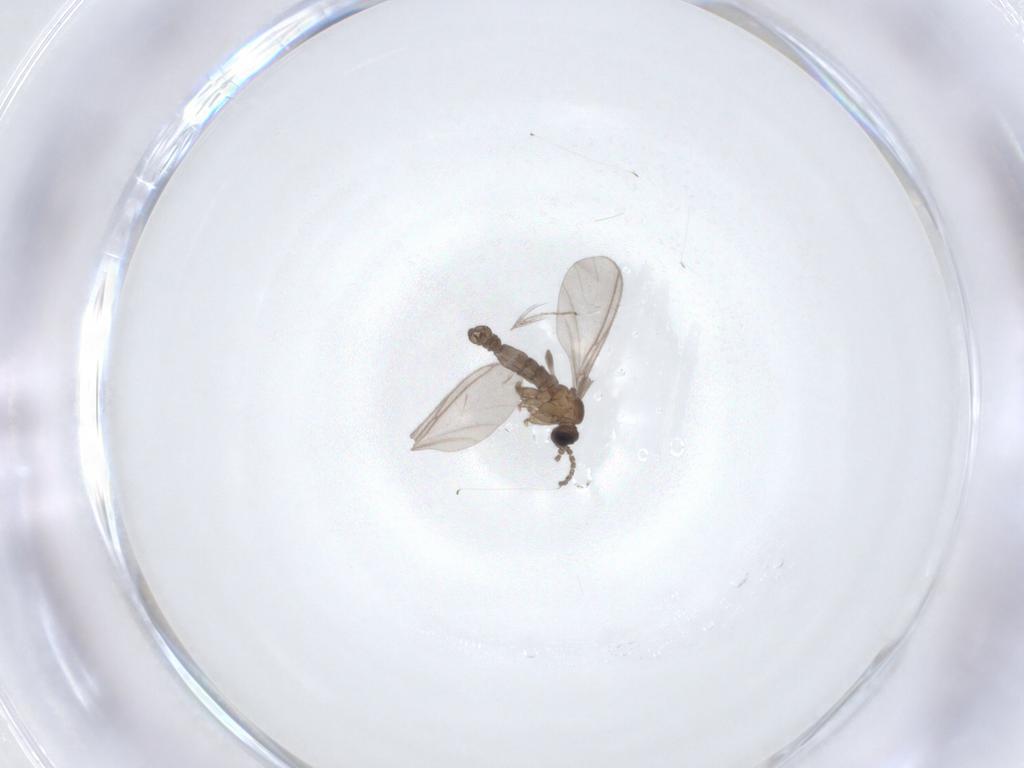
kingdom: Animalia
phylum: Arthropoda
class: Insecta
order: Diptera
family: Sciaridae
